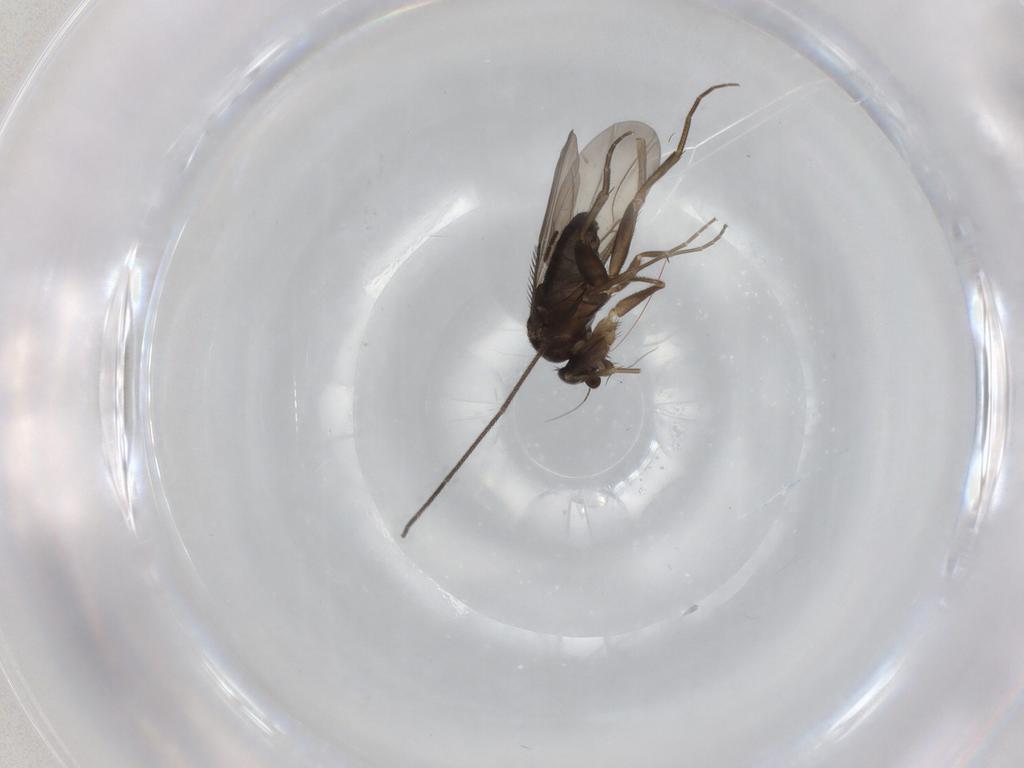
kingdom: Animalia
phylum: Arthropoda
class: Insecta
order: Diptera
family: Phoridae
